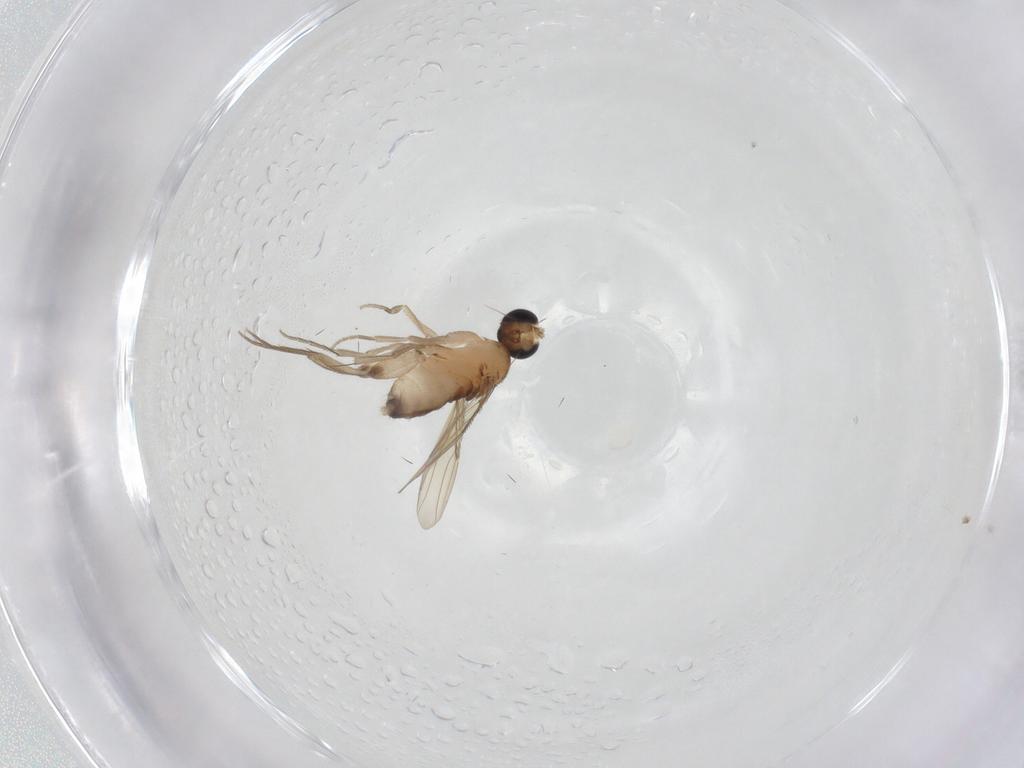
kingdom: Animalia
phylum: Arthropoda
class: Insecta
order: Diptera
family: Phoridae
